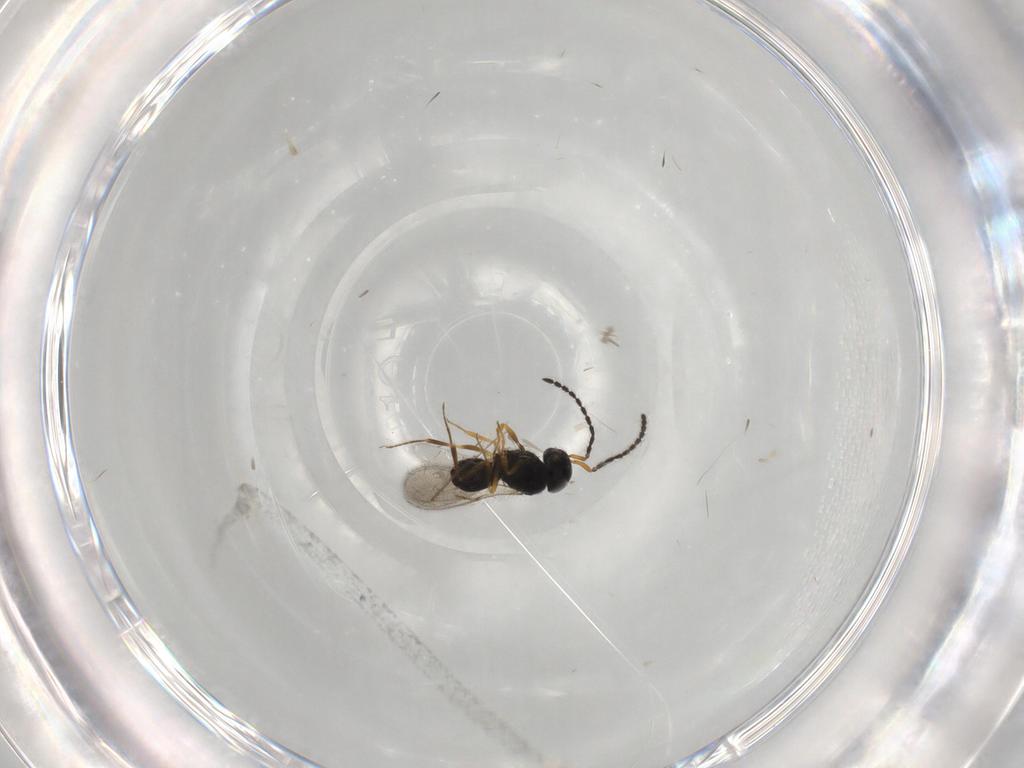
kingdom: Animalia
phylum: Arthropoda
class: Insecta
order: Hymenoptera
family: Scelionidae
